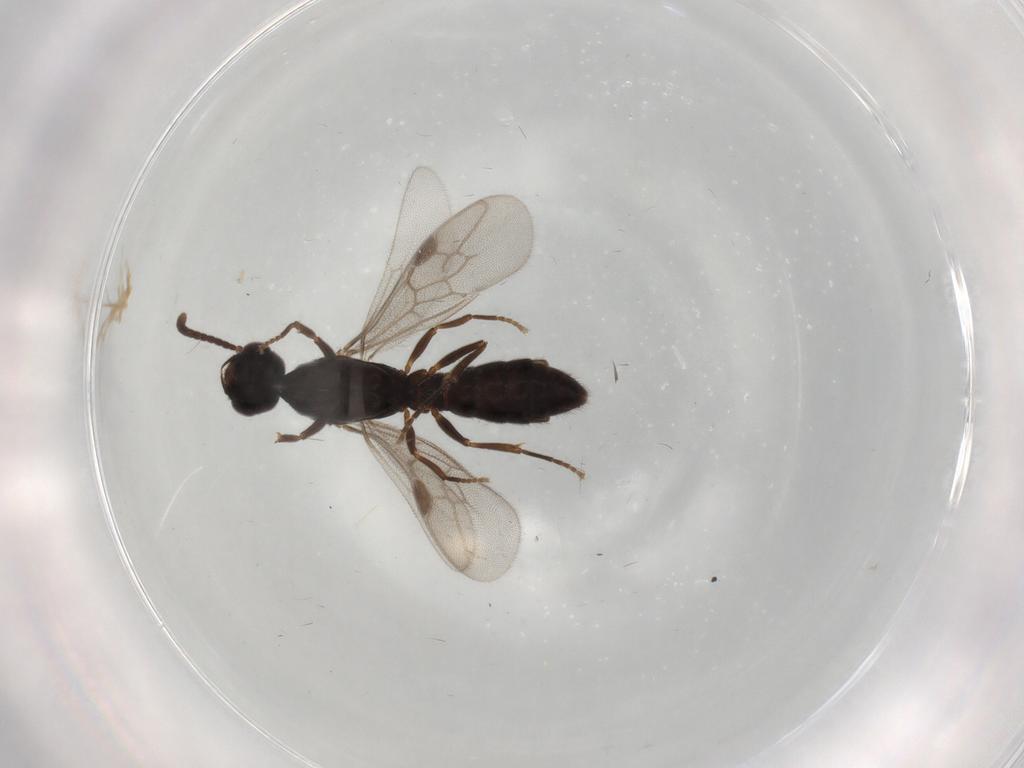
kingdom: Animalia
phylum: Arthropoda
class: Insecta
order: Hymenoptera
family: Formicidae
